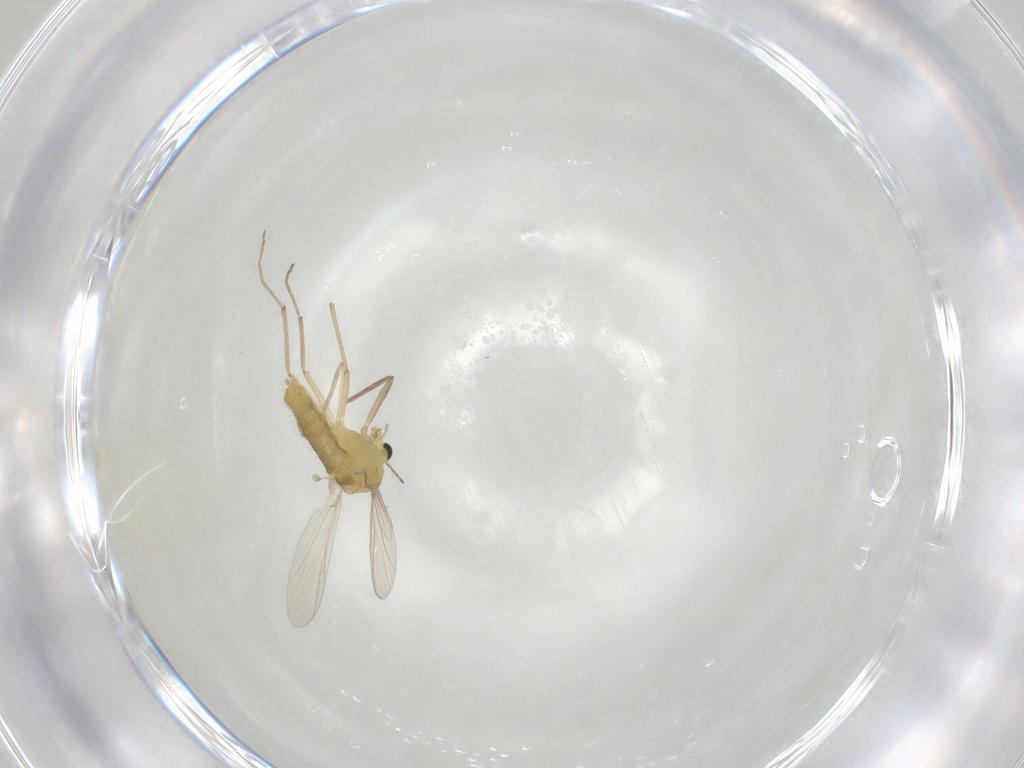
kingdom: Animalia
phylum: Arthropoda
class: Insecta
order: Diptera
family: Chironomidae
